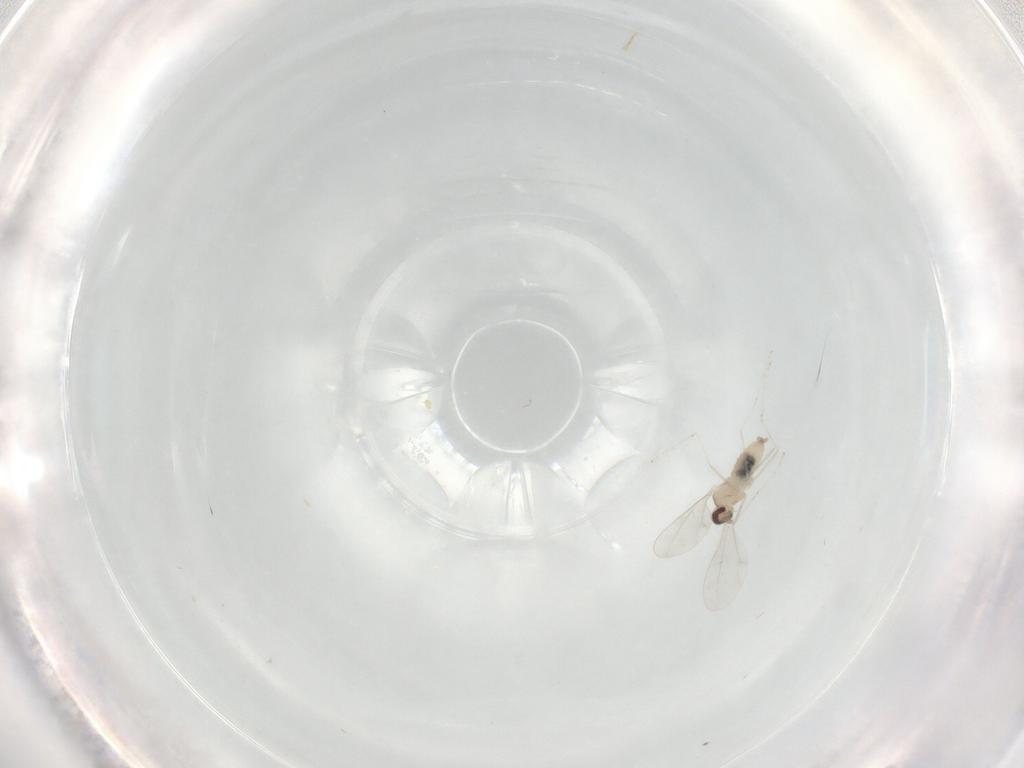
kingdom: Animalia
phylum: Arthropoda
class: Insecta
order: Diptera
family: Cecidomyiidae
